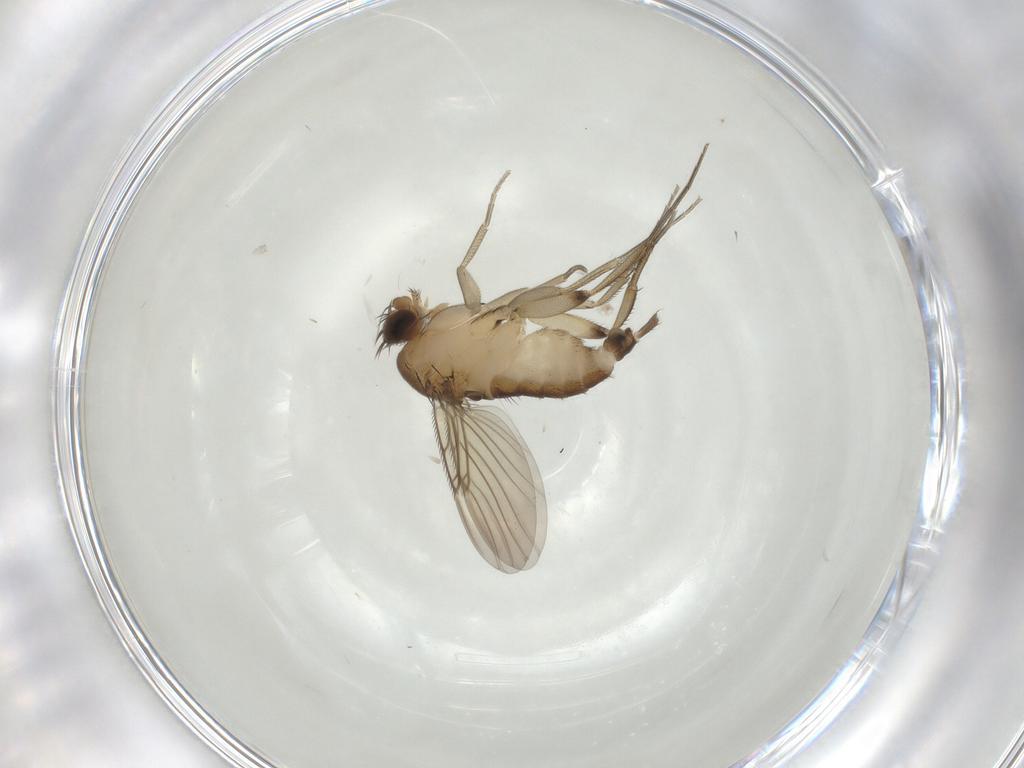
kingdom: Animalia
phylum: Arthropoda
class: Insecta
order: Diptera
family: Phoridae
